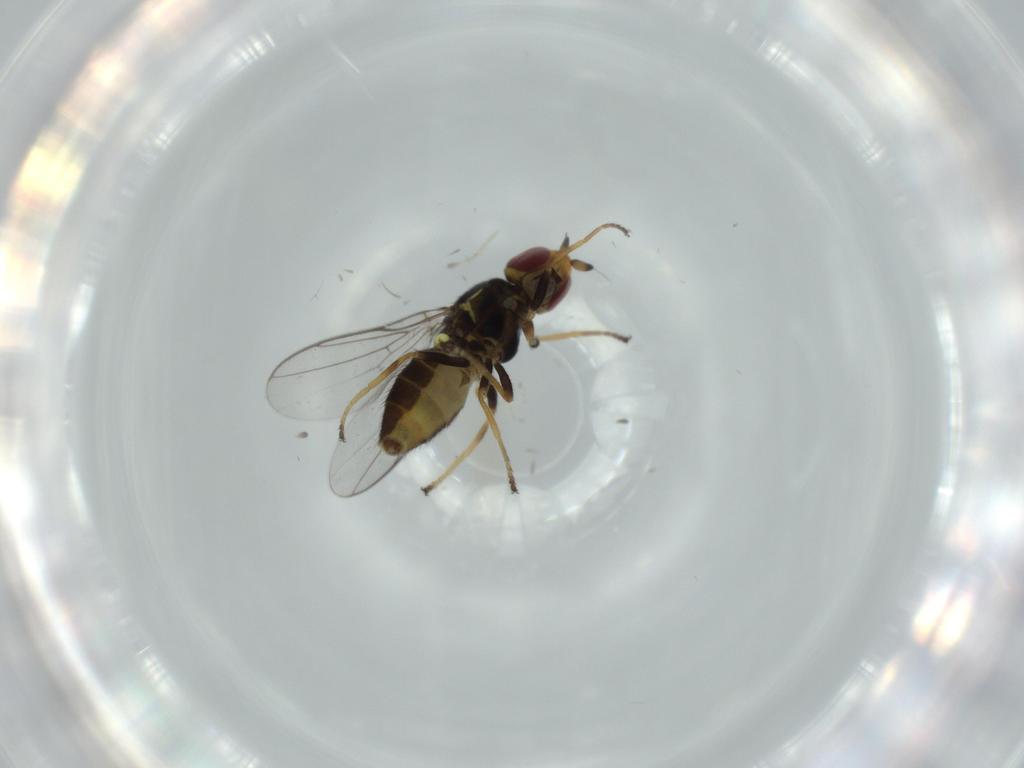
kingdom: Animalia
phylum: Arthropoda
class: Insecta
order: Diptera
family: Chloropidae
